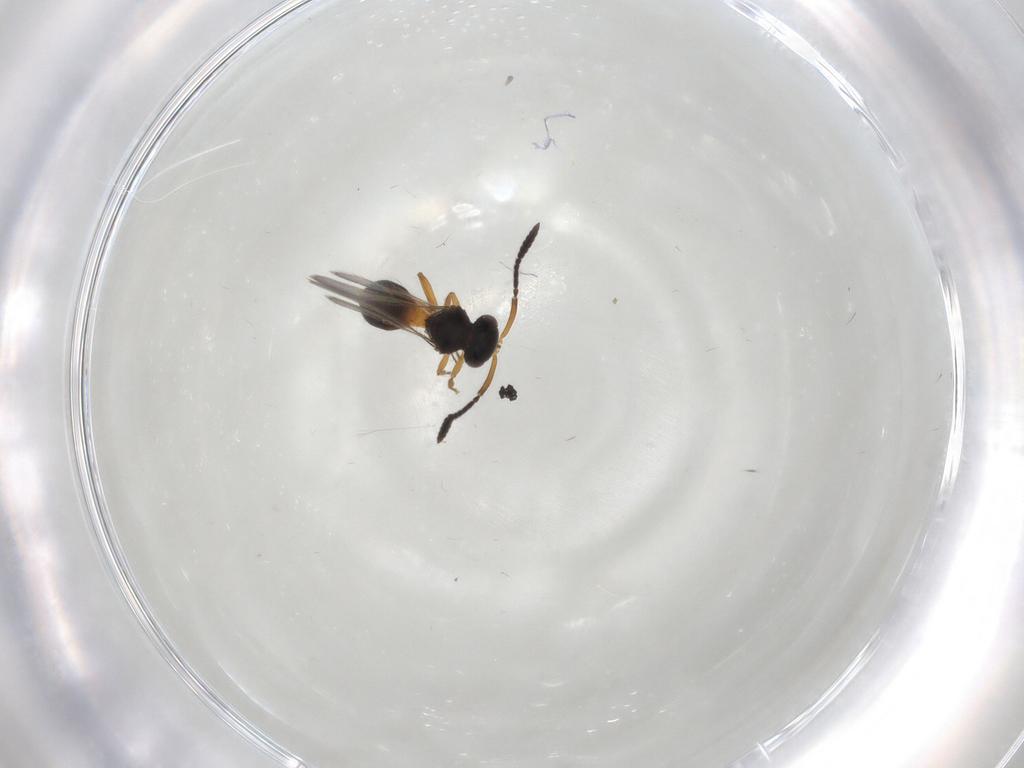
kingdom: Animalia
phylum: Arthropoda
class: Insecta
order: Hymenoptera
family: Scelionidae
